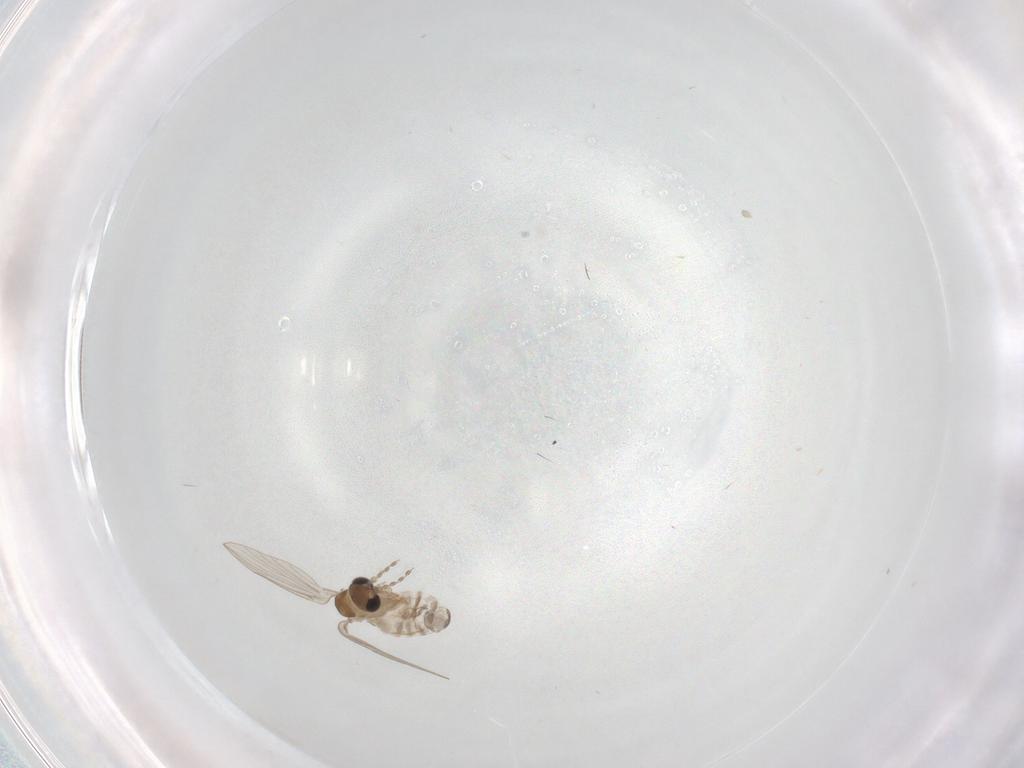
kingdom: Animalia
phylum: Arthropoda
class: Insecta
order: Diptera
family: Psychodidae
